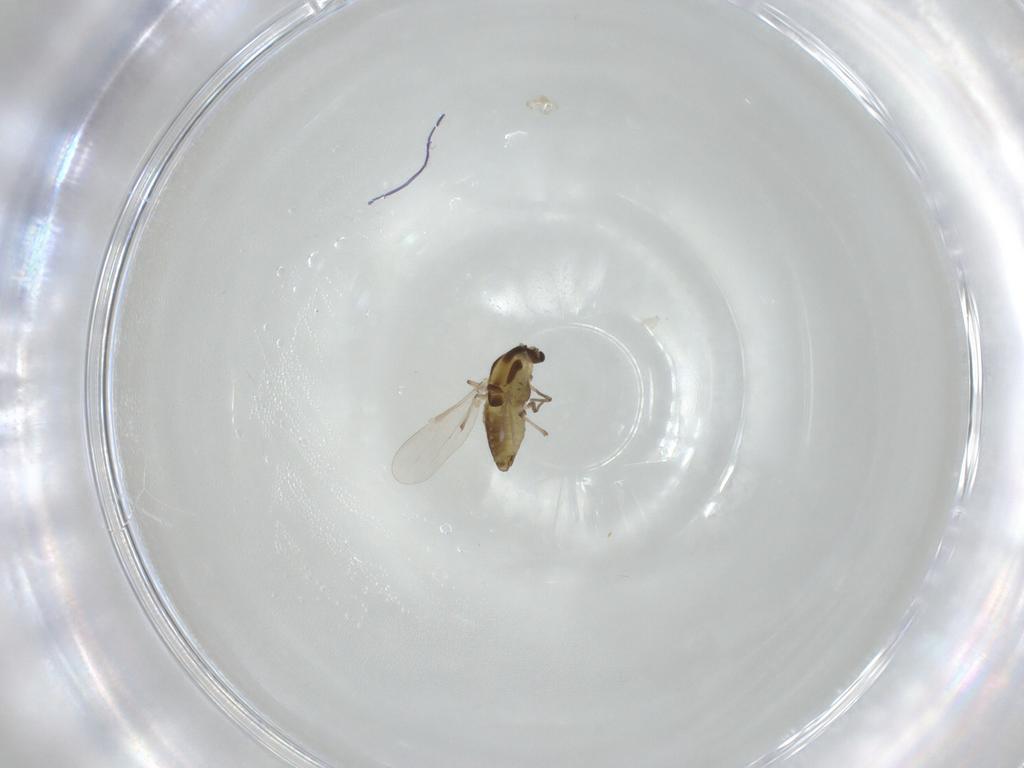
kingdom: Animalia
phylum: Arthropoda
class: Insecta
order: Diptera
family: Chironomidae
